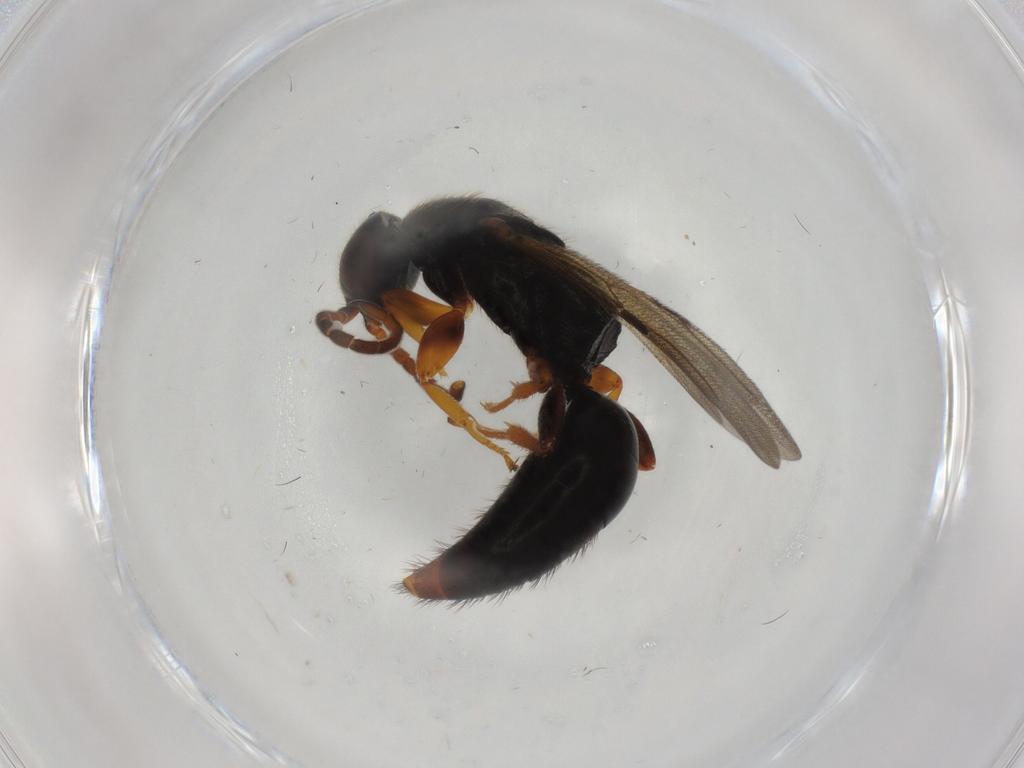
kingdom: Animalia
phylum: Arthropoda
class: Insecta
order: Hymenoptera
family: Bethylidae
